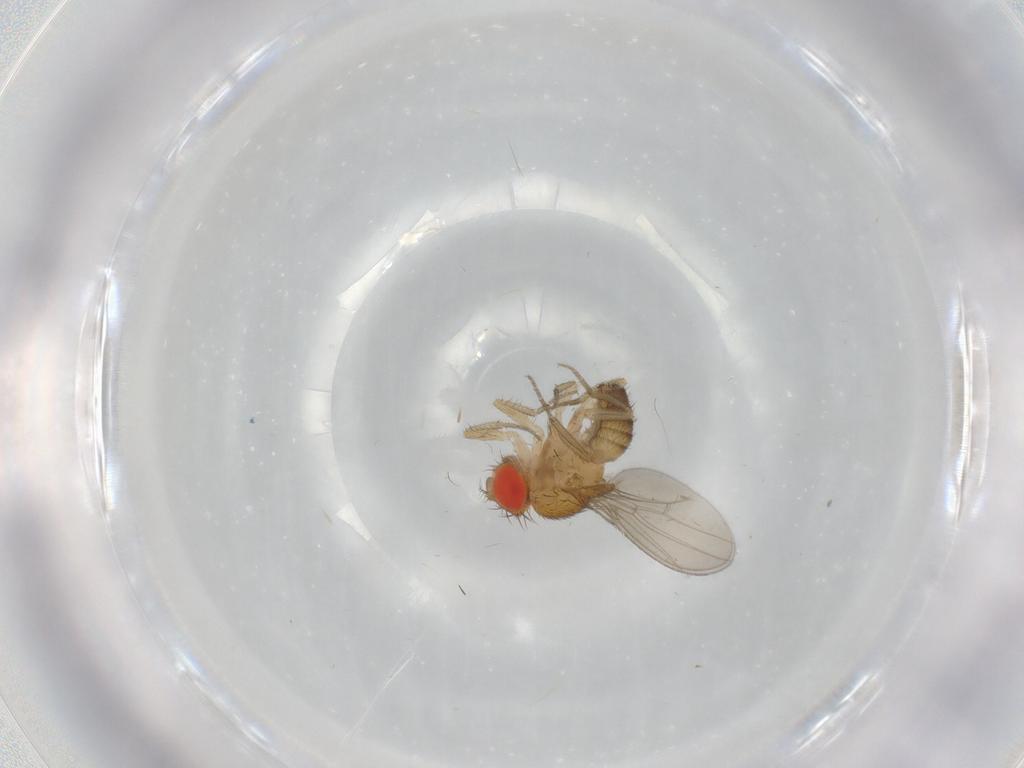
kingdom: Animalia
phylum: Arthropoda
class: Insecta
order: Diptera
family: Drosophilidae
